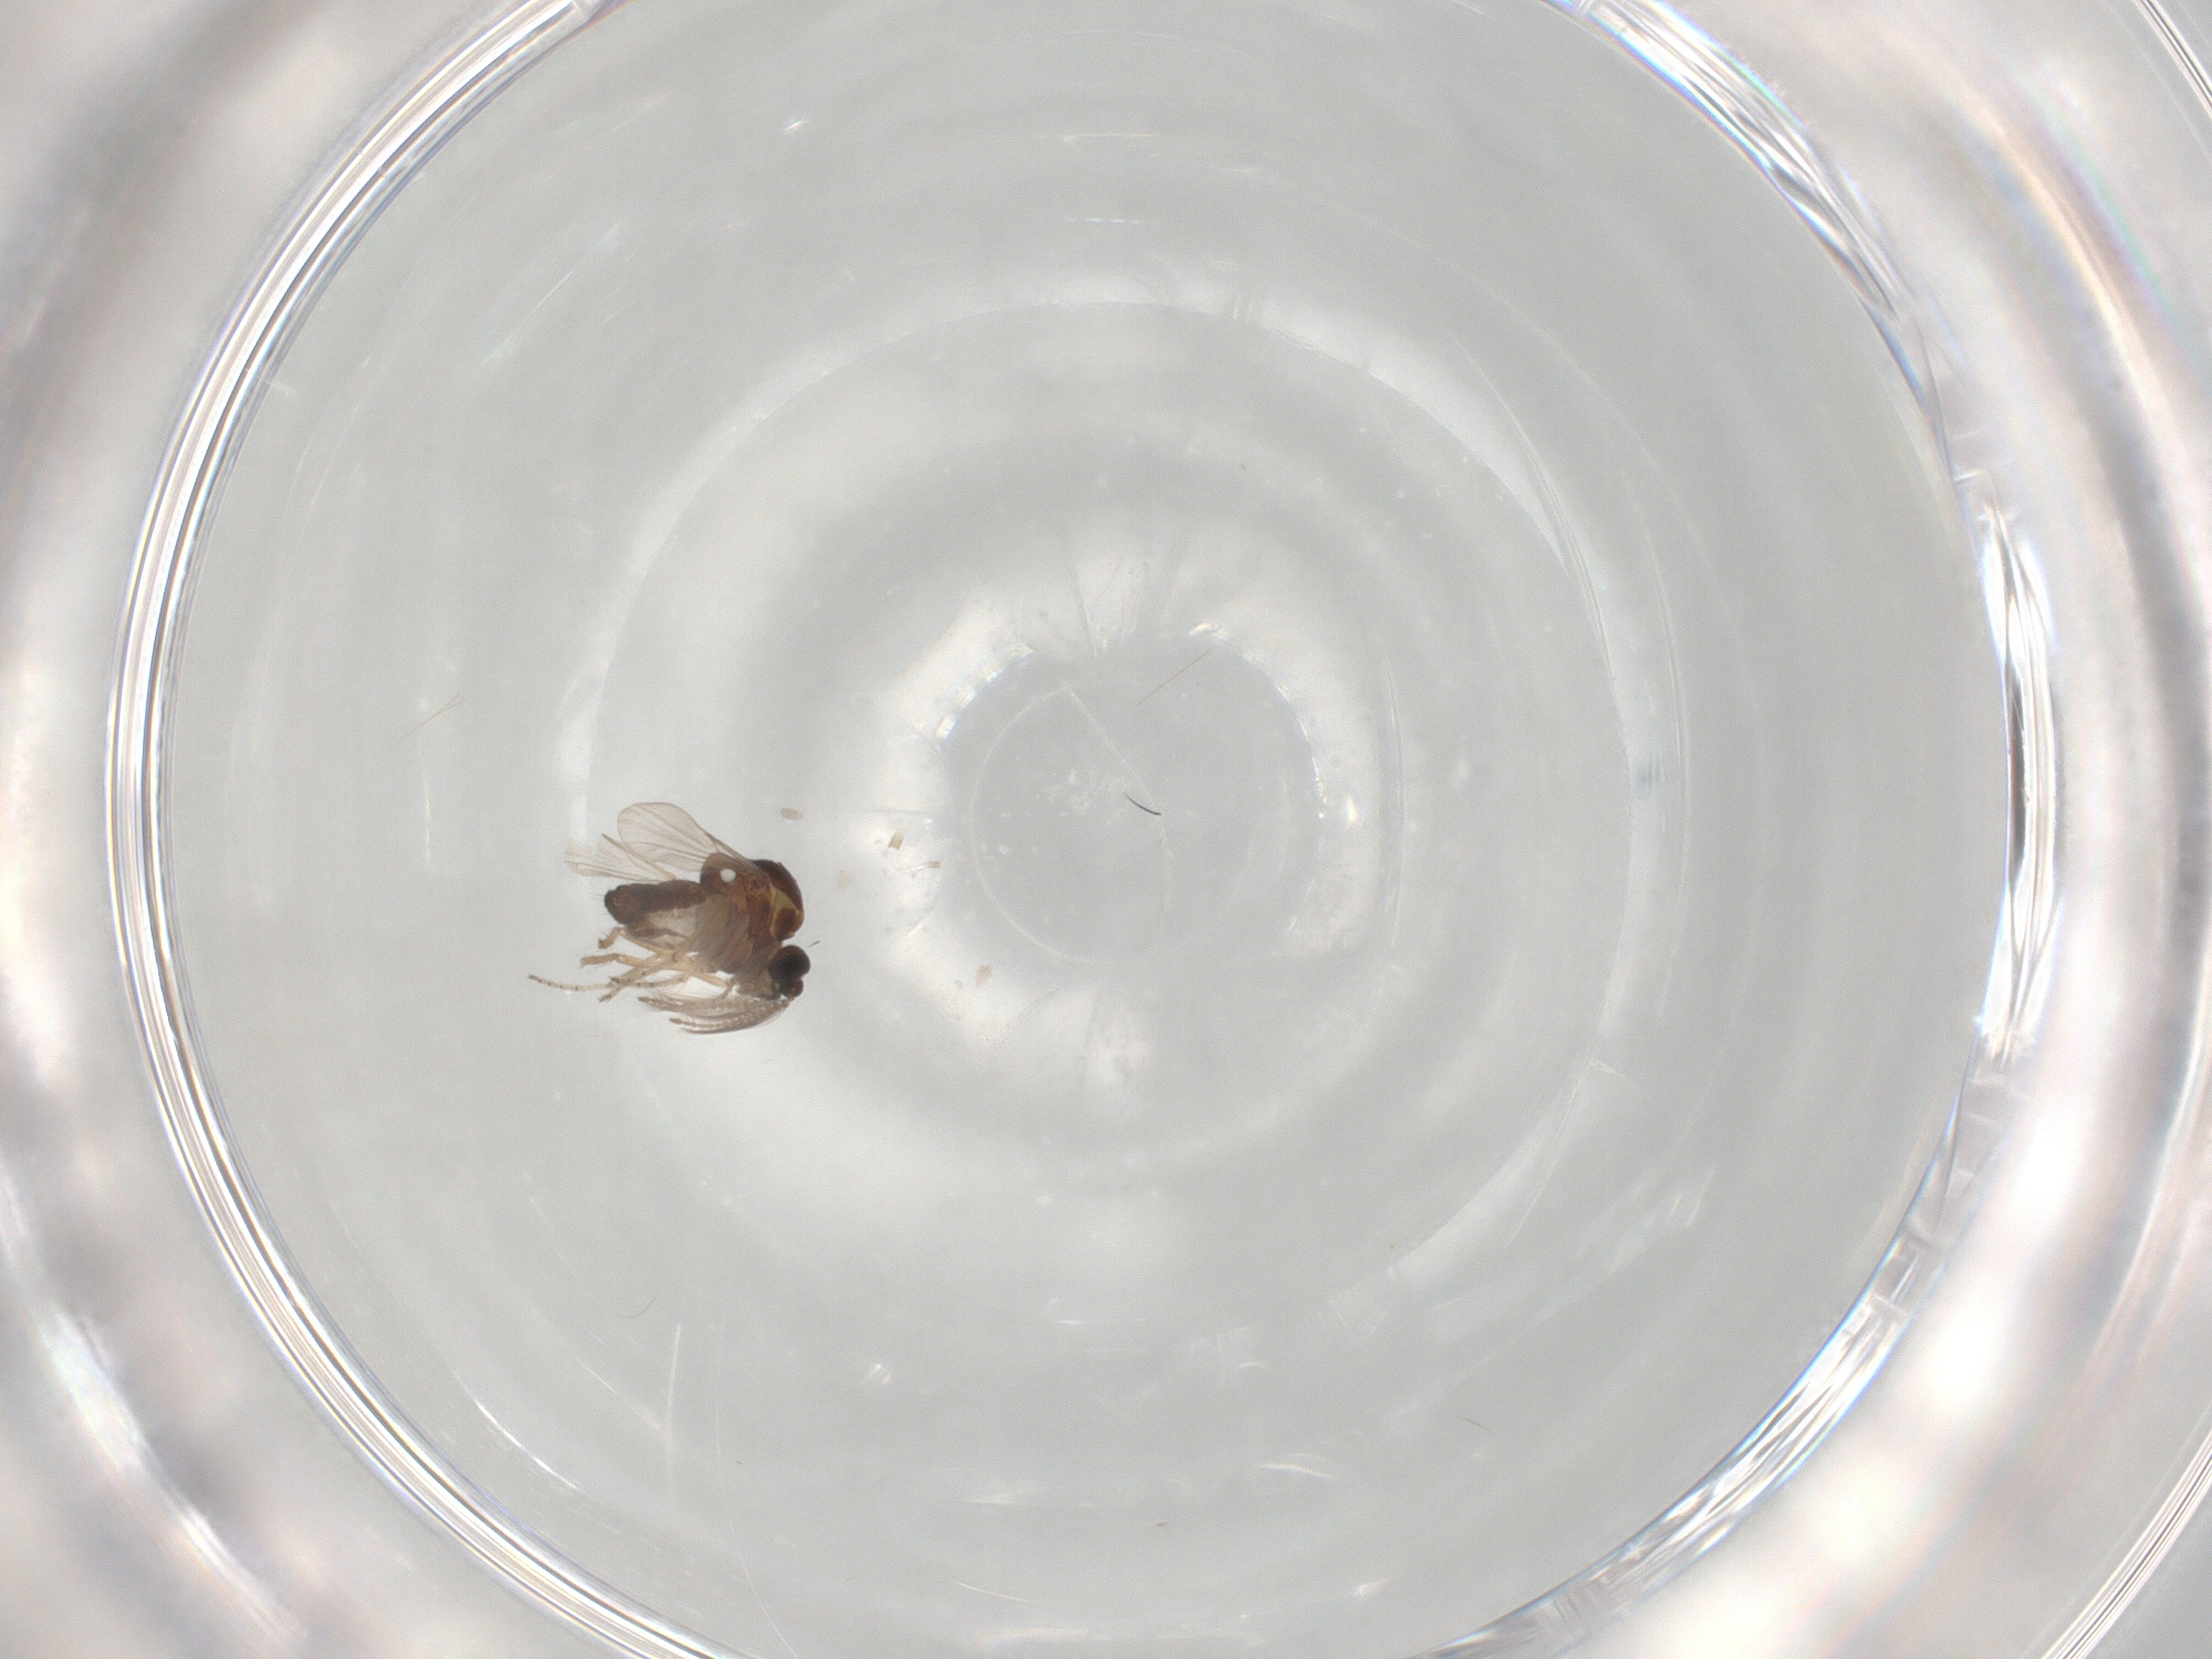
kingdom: Animalia
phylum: Arthropoda
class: Insecta
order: Diptera
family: Ceratopogonidae
